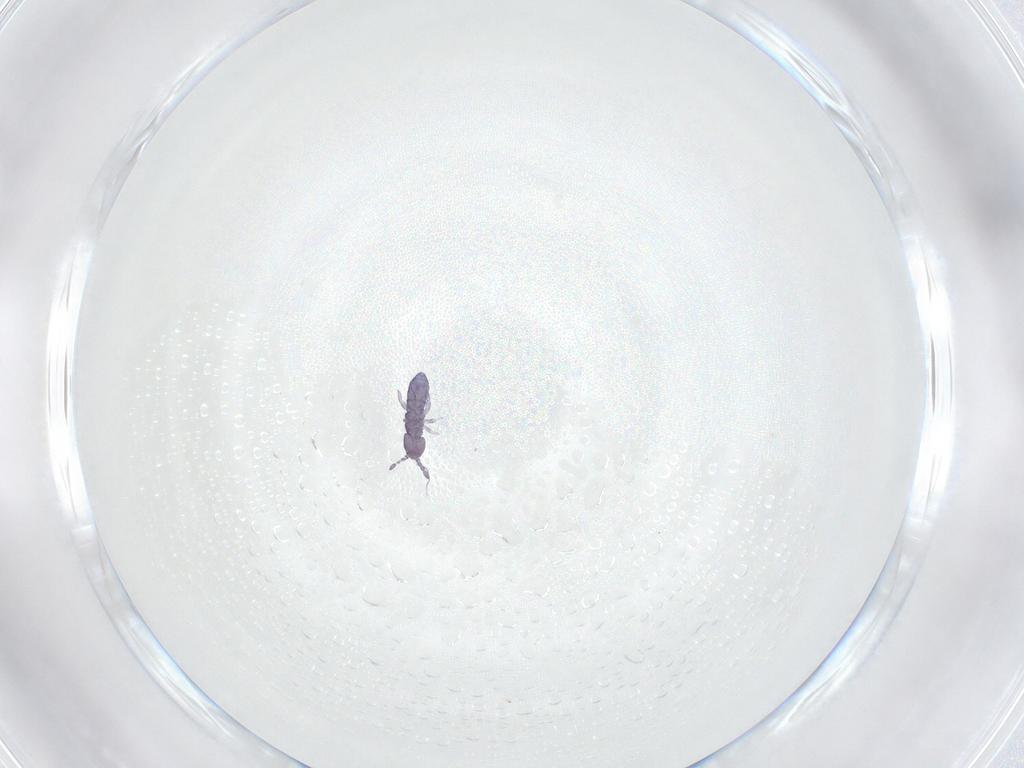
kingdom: Animalia
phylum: Arthropoda
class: Collembola
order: Entomobryomorpha
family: Isotomidae
